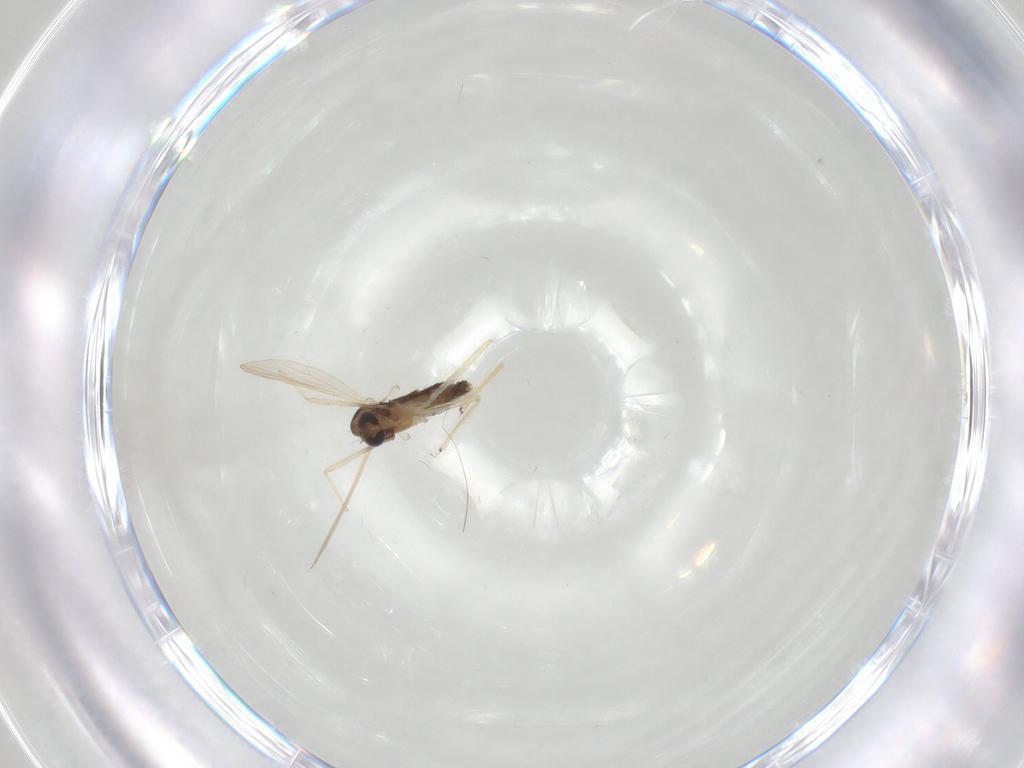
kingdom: Animalia
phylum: Arthropoda
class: Insecta
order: Diptera
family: Chironomidae
